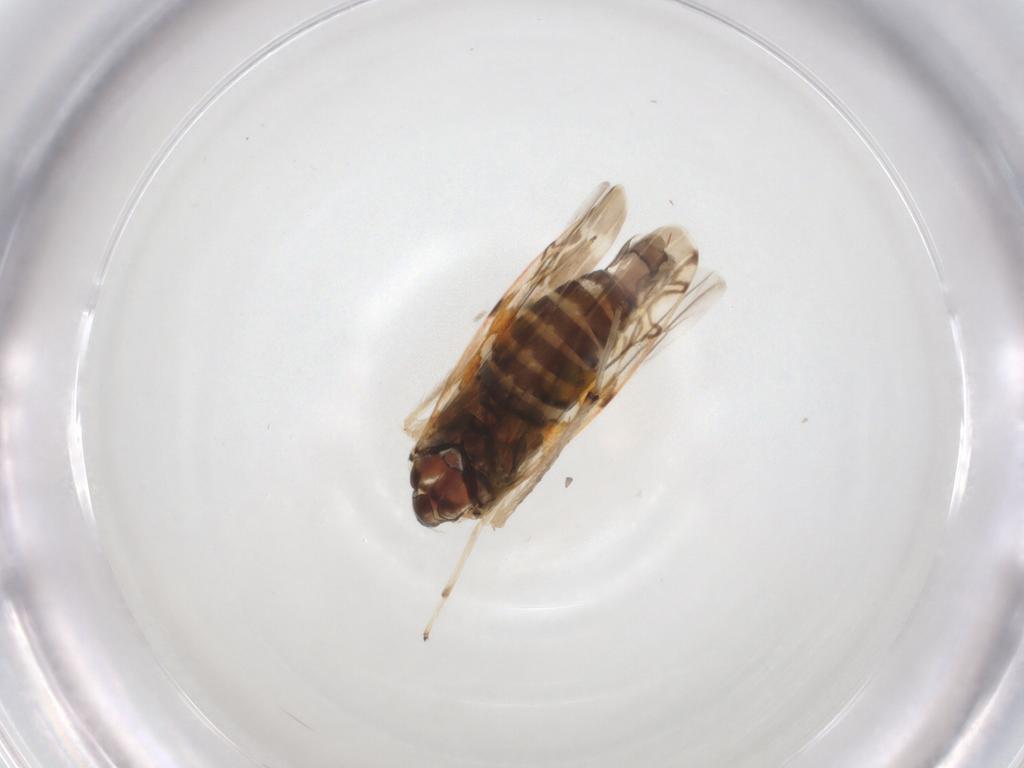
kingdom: Animalia
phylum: Arthropoda
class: Insecta
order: Hemiptera
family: Cicadellidae
